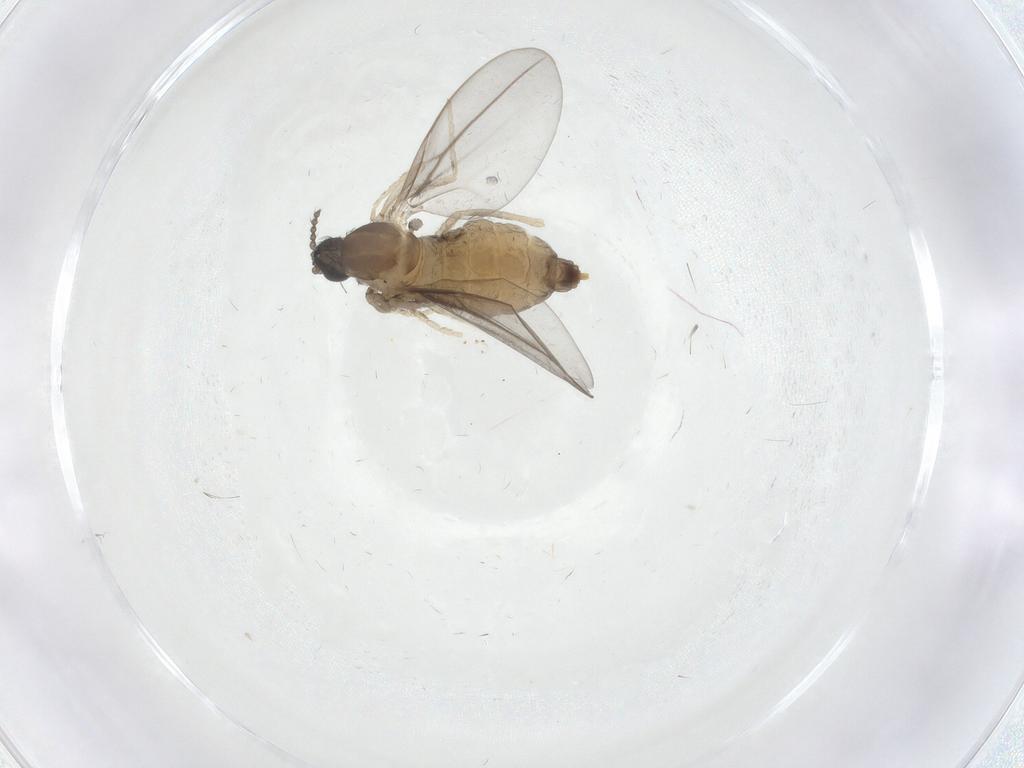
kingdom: Animalia
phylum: Arthropoda
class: Insecta
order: Diptera
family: Cecidomyiidae
